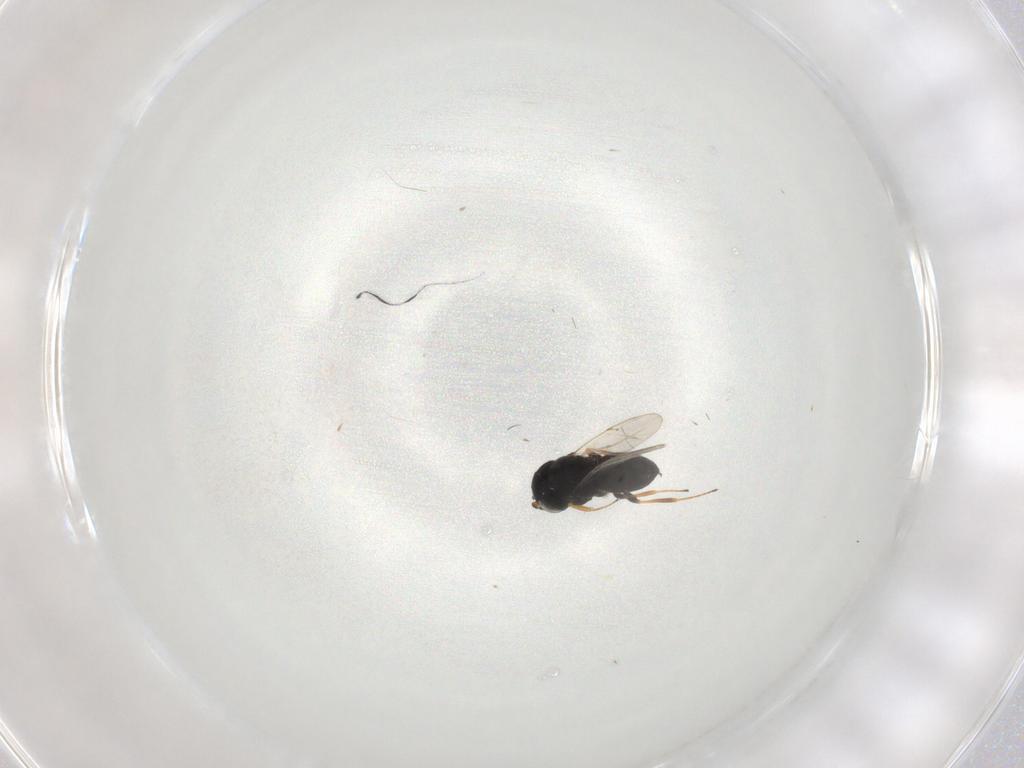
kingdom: Animalia
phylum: Arthropoda
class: Insecta
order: Coleoptera
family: Curculionidae
